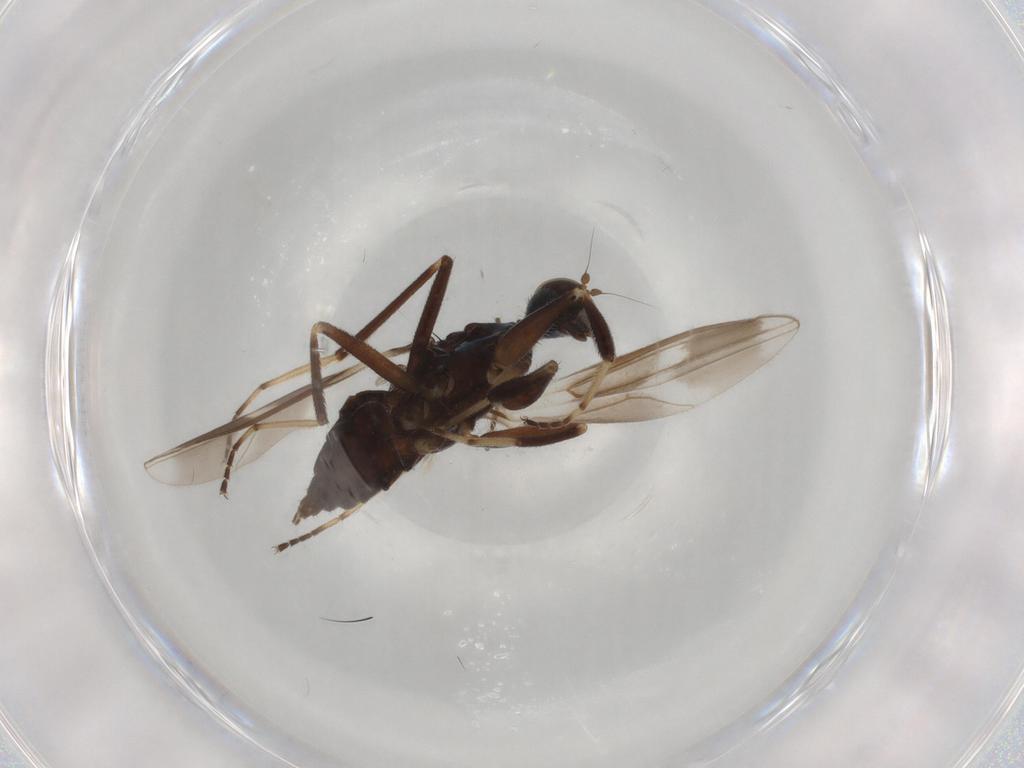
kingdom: Animalia
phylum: Arthropoda
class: Insecta
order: Diptera
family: Hybotidae
